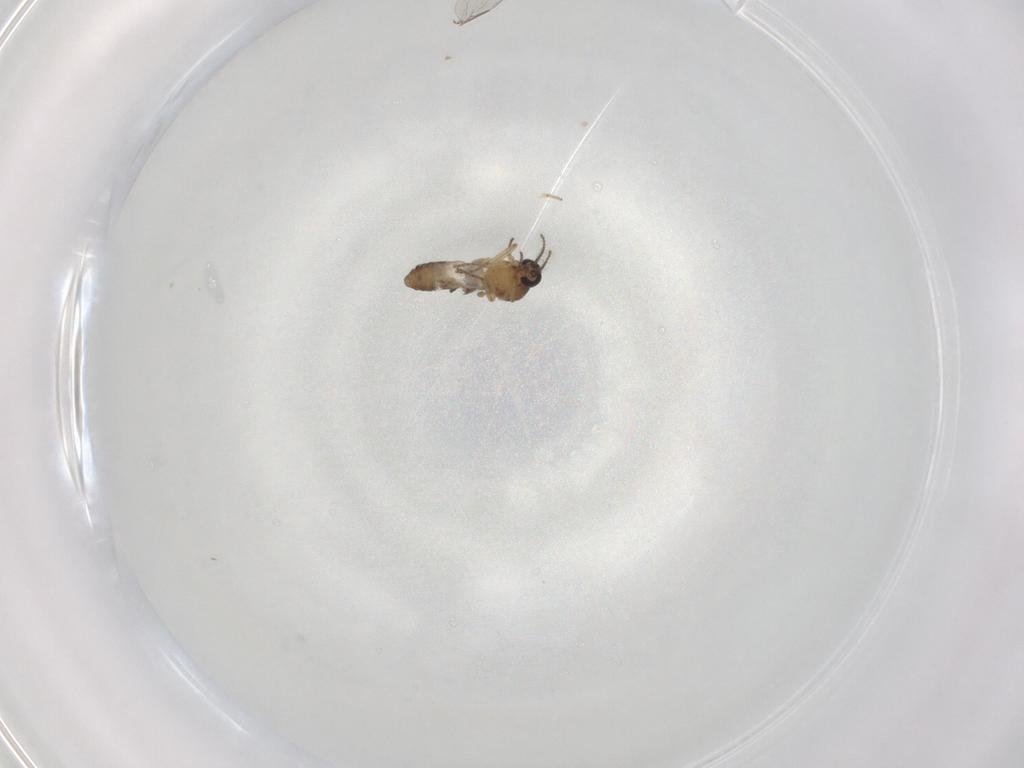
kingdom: Animalia
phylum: Arthropoda
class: Insecta
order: Diptera
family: Ceratopogonidae
